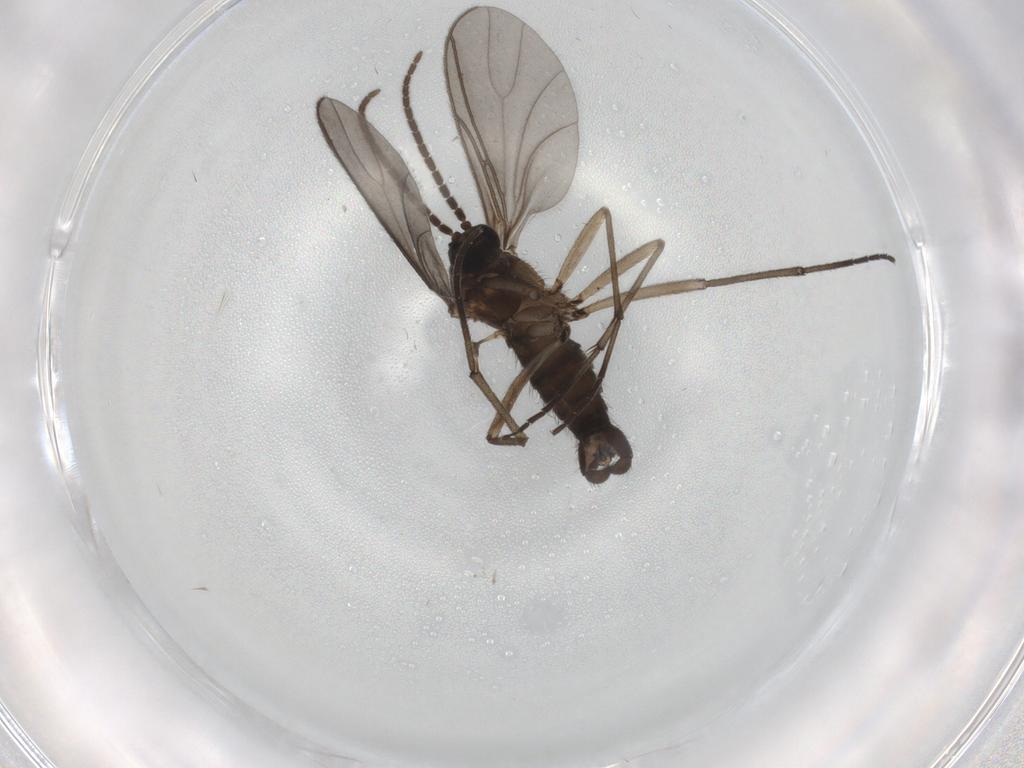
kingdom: Animalia
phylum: Arthropoda
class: Insecta
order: Diptera
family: Sciaridae
